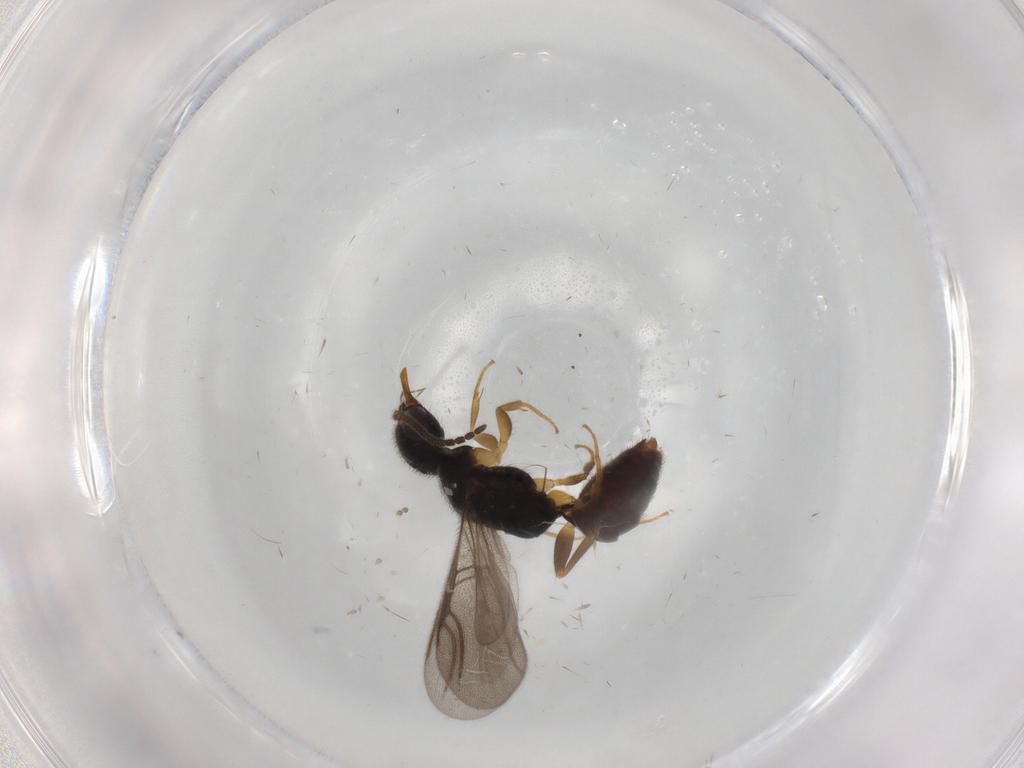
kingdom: Animalia
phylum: Arthropoda
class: Insecta
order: Hymenoptera
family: Bethylidae
